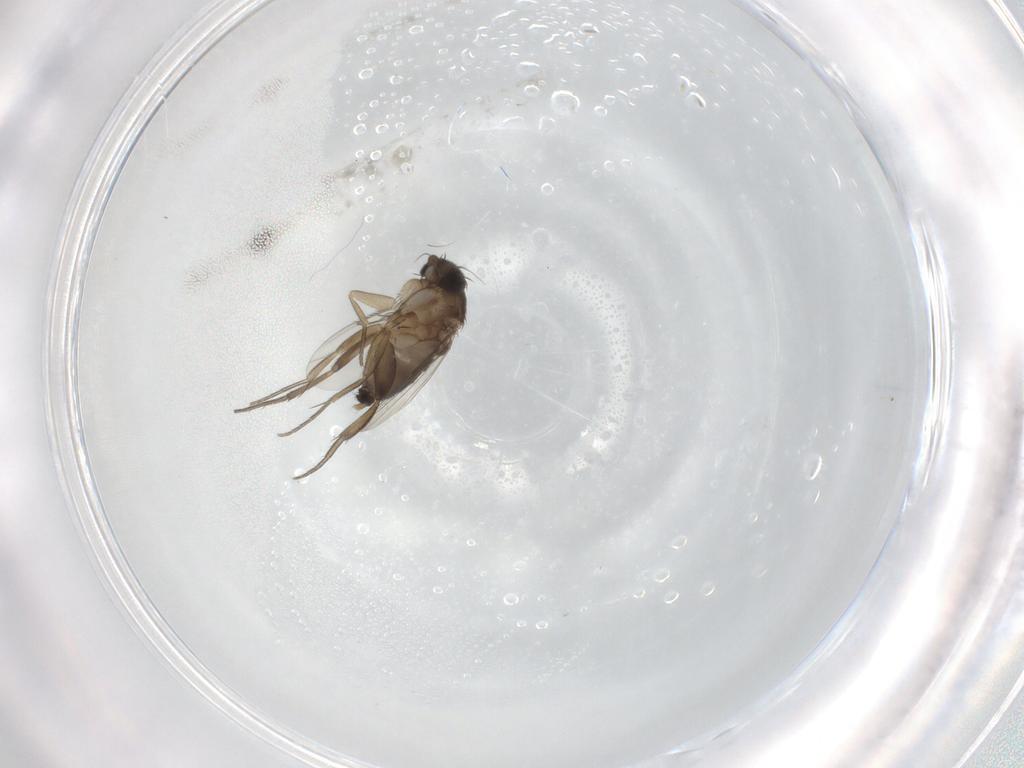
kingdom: Animalia
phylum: Arthropoda
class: Insecta
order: Diptera
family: Phoridae
